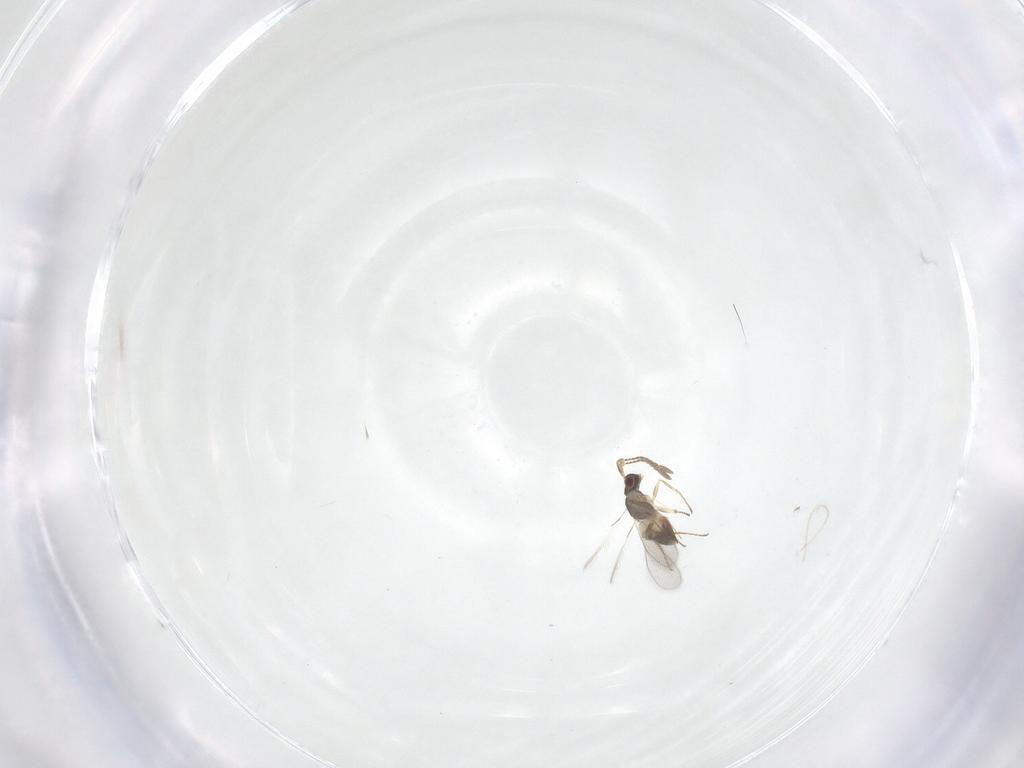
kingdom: Animalia
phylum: Arthropoda
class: Insecta
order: Hymenoptera
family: Mymaridae
